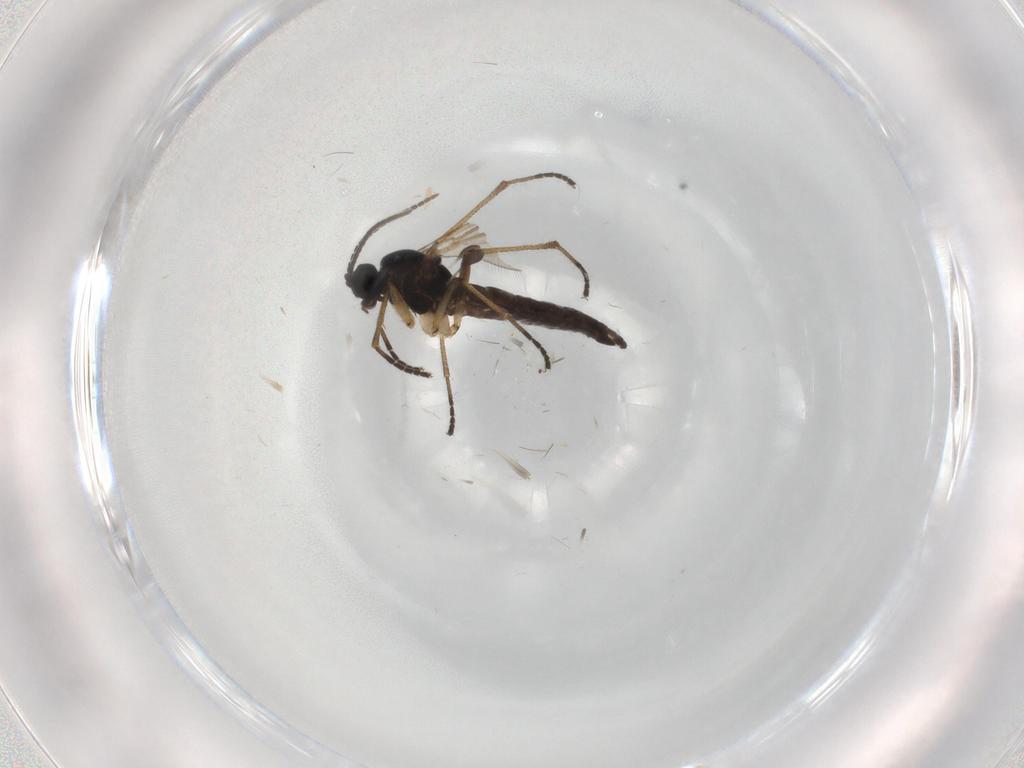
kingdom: Animalia
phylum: Arthropoda
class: Insecta
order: Diptera
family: Sciaridae
